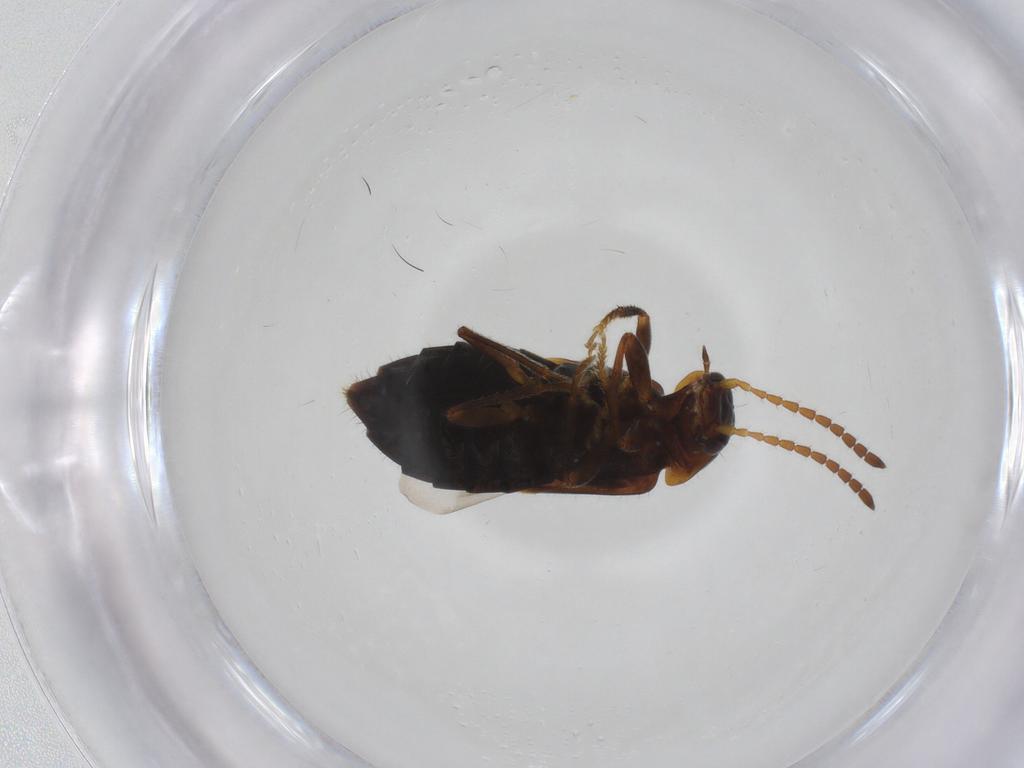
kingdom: Animalia
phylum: Arthropoda
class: Insecta
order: Coleoptera
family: Staphylinidae
